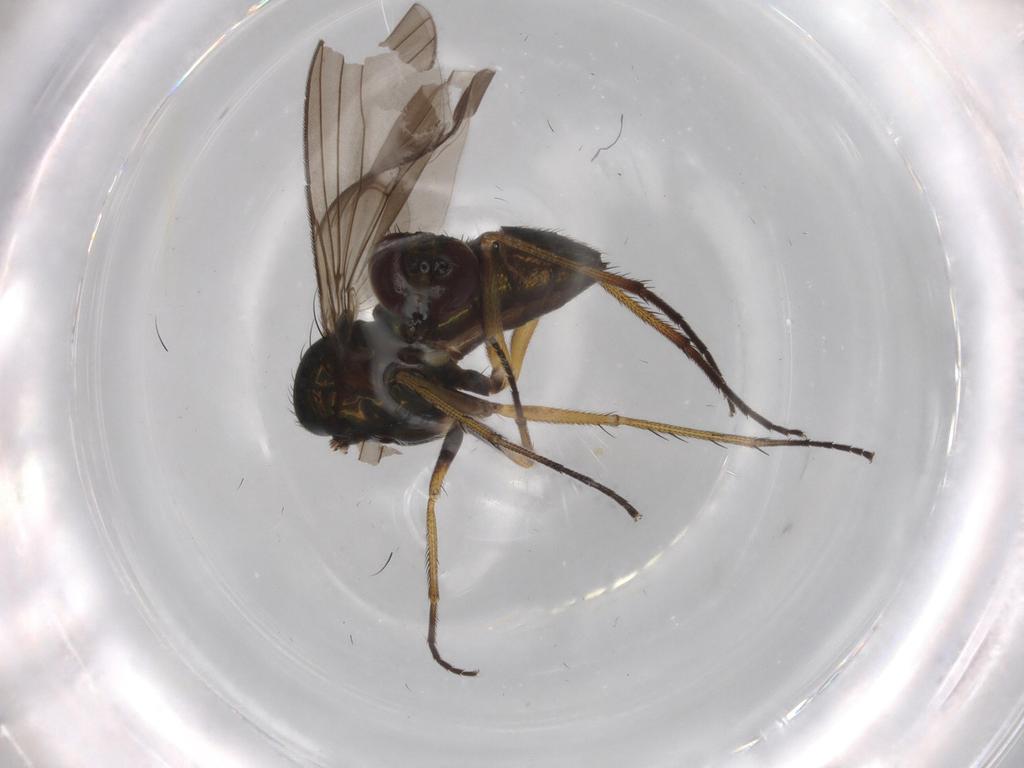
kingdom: Animalia
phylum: Arthropoda
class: Insecta
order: Diptera
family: Dolichopodidae
